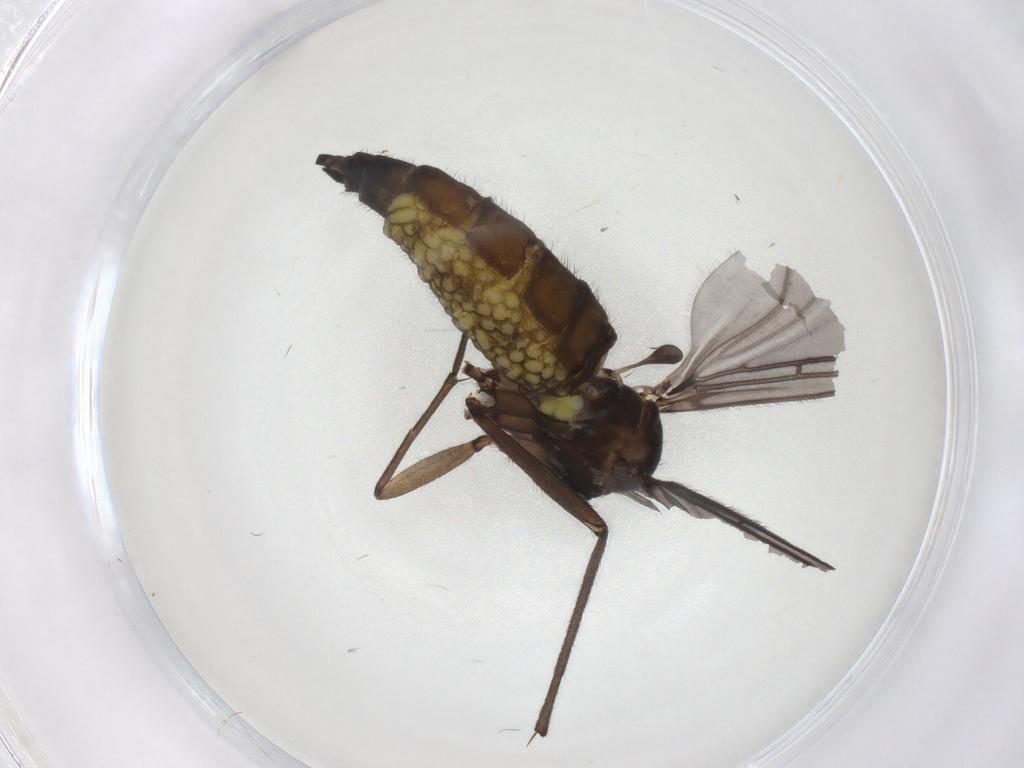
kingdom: Animalia
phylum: Arthropoda
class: Insecta
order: Diptera
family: Sciaridae
